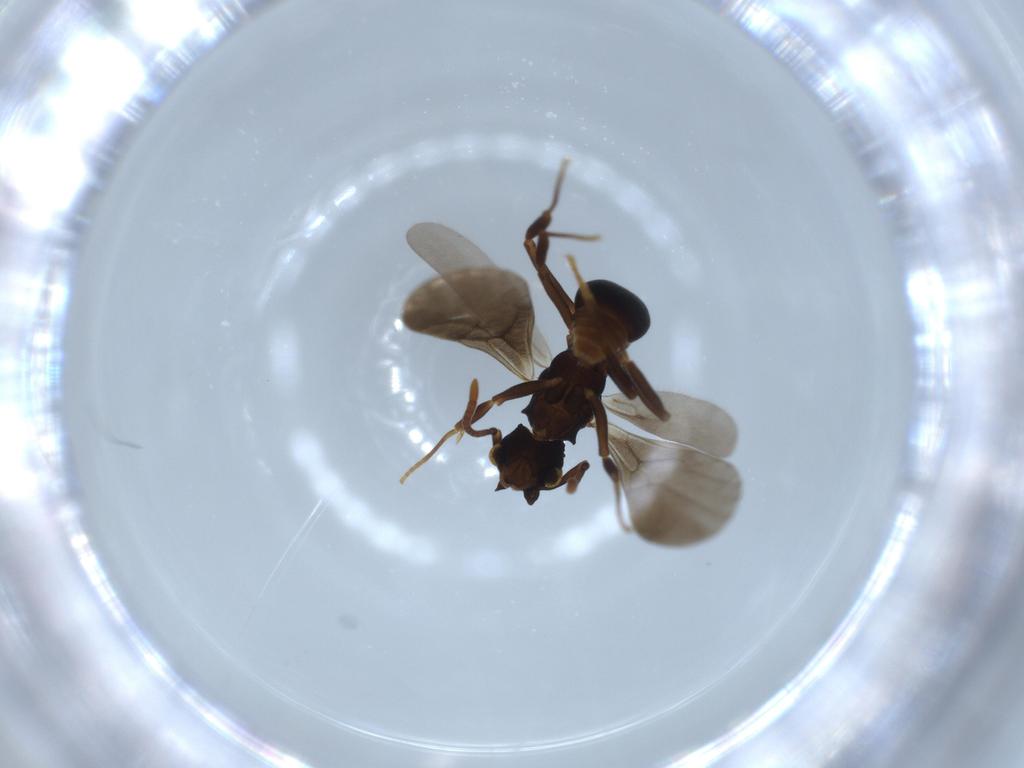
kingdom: Animalia
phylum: Arthropoda
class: Insecta
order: Hymenoptera
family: Formicidae
